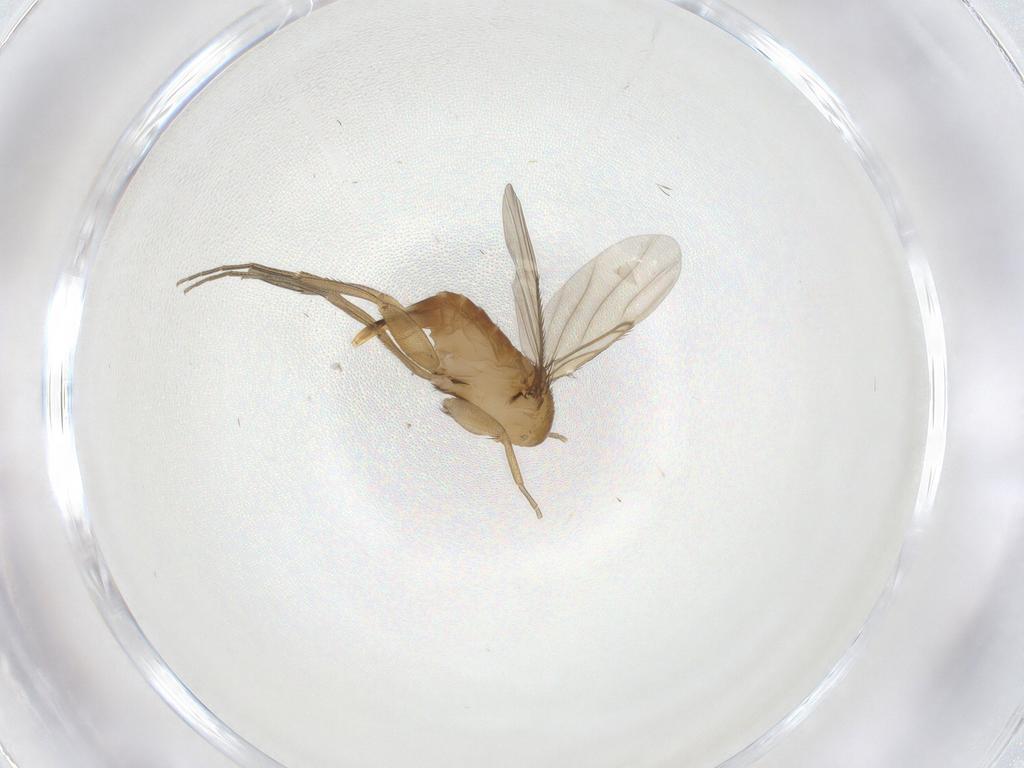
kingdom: Animalia
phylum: Arthropoda
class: Insecta
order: Diptera
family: Phoridae
